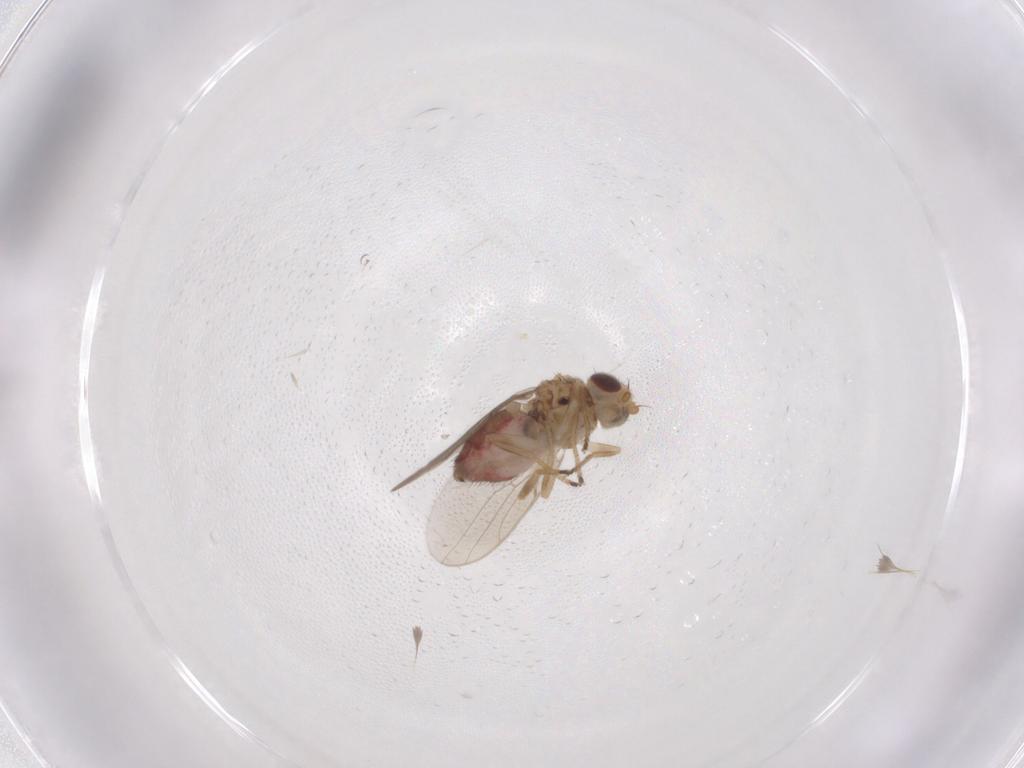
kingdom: Animalia
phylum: Arthropoda
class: Insecta
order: Diptera
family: Chloropidae
